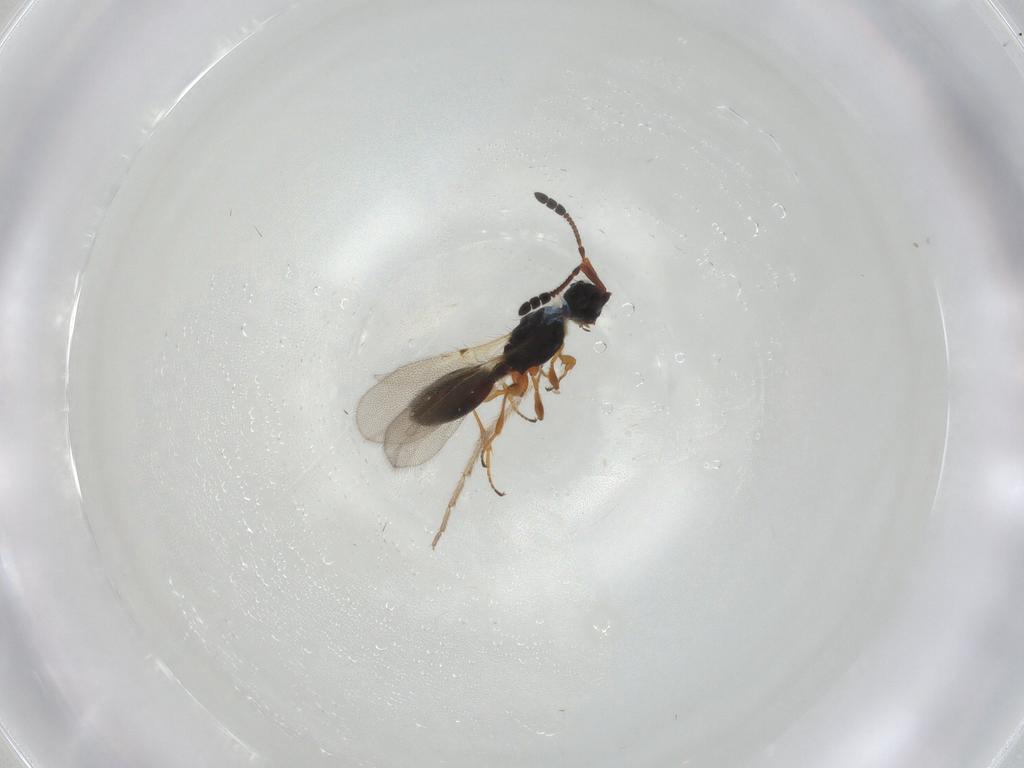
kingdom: Animalia
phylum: Arthropoda
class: Insecta
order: Hymenoptera
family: Diapriidae
